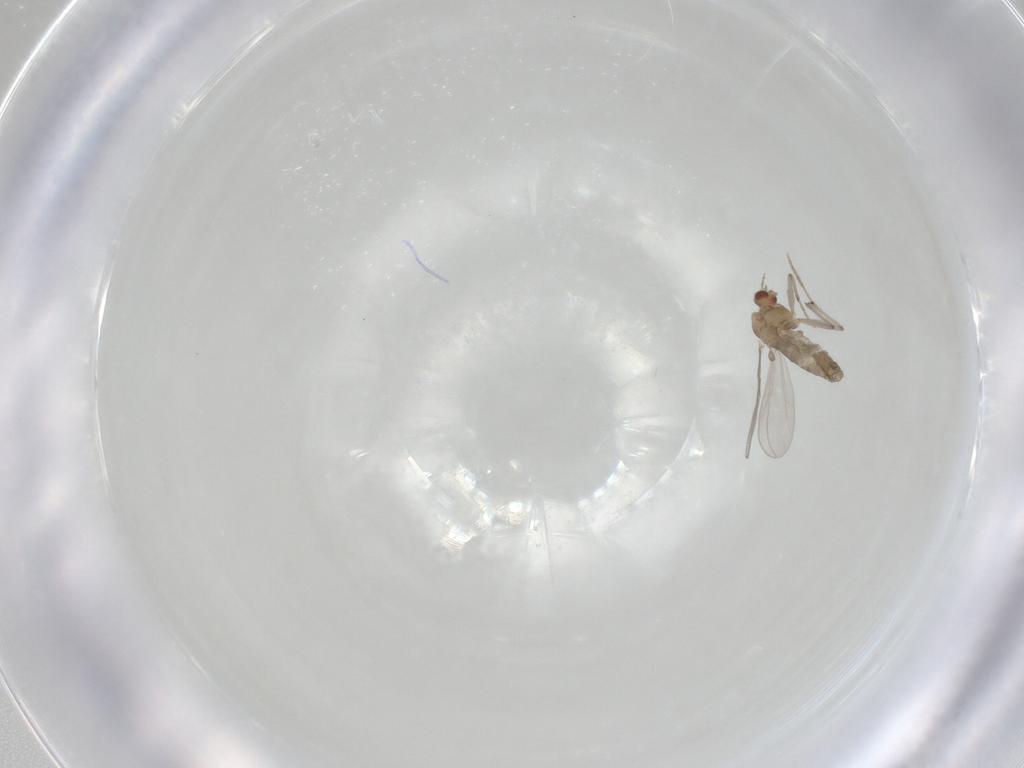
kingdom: Animalia
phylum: Arthropoda
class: Insecta
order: Diptera
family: Chironomidae
